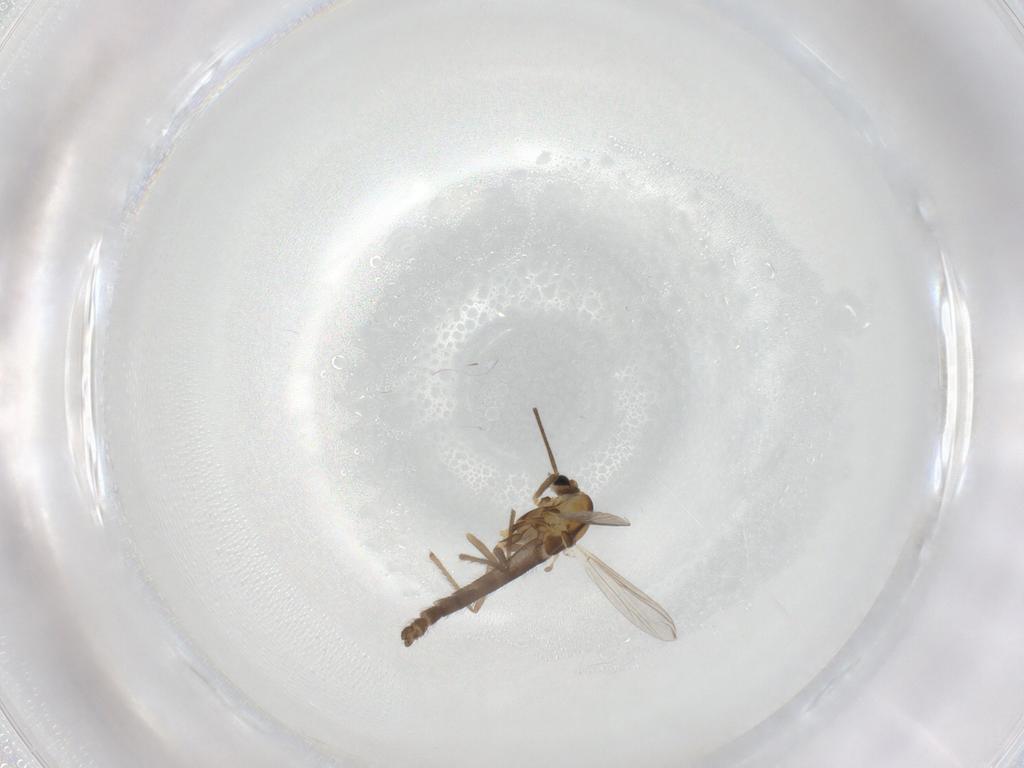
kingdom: Animalia
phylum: Arthropoda
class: Insecta
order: Diptera
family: Chironomidae
